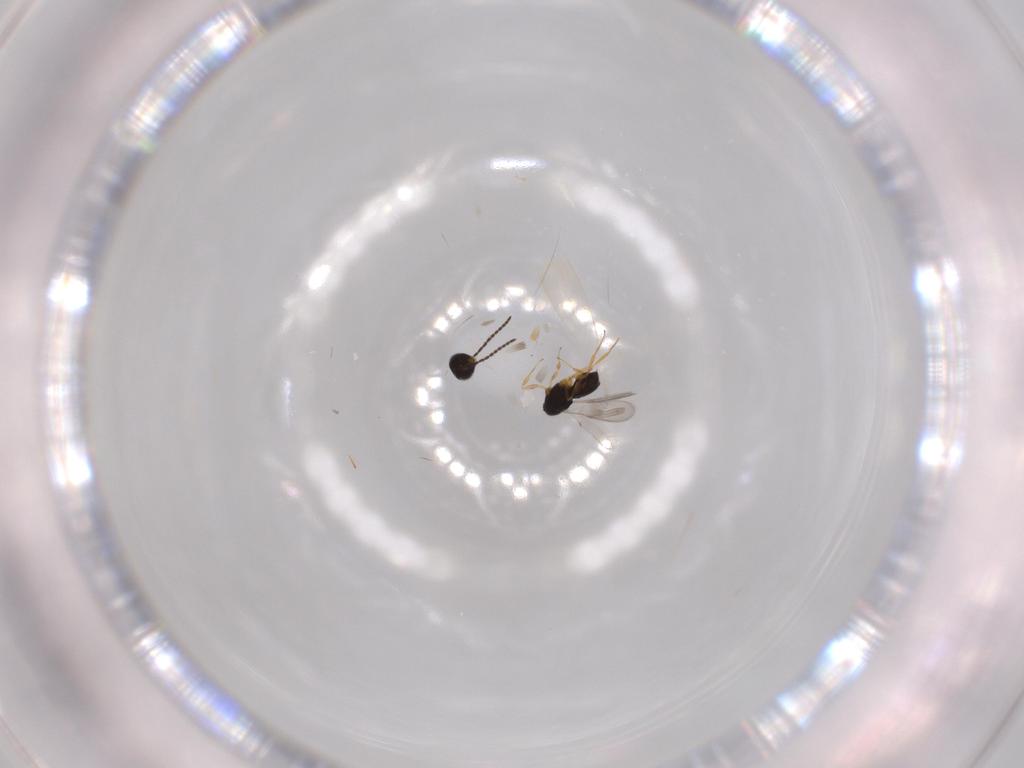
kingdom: Animalia
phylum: Arthropoda
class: Insecta
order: Hymenoptera
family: Scelionidae
